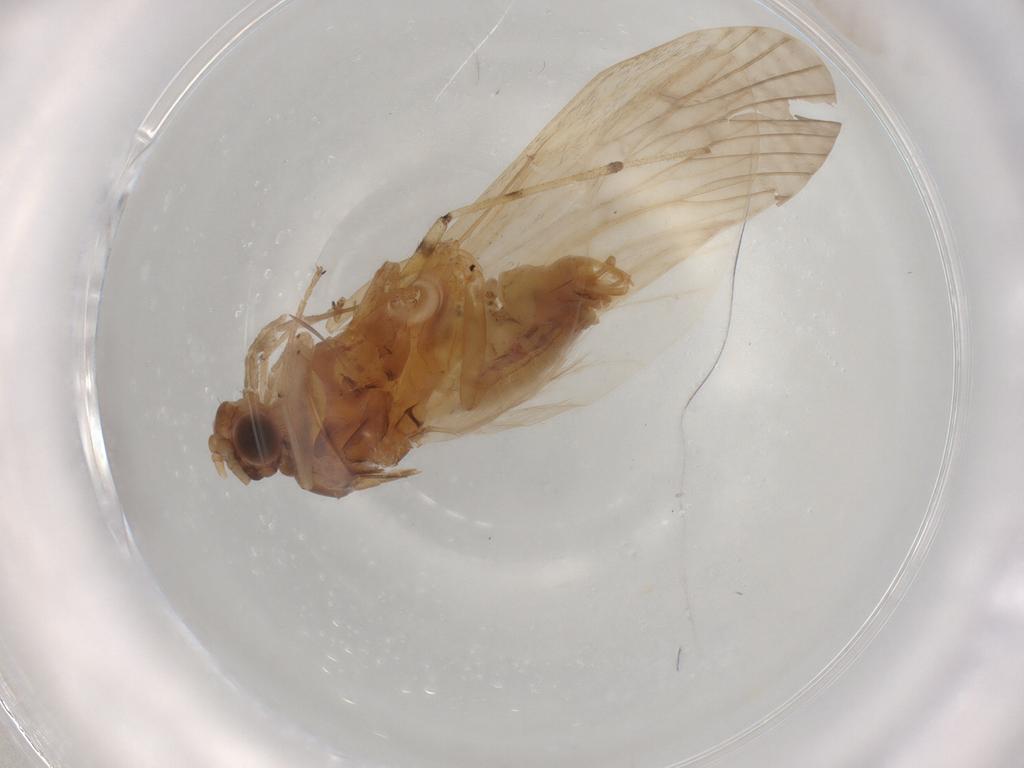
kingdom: Animalia
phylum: Arthropoda
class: Insecta
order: Trichoptera
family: Hydropsychidae
